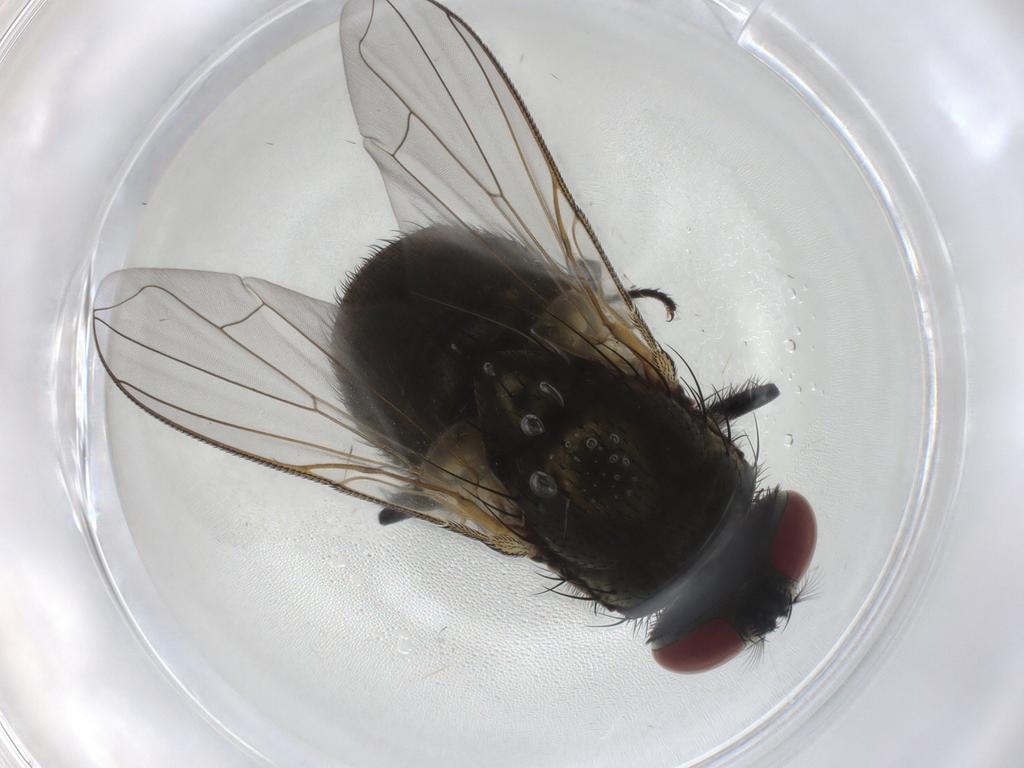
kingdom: Animalia
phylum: Arthropoda
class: Insecta
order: Diptera
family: Muscidae
